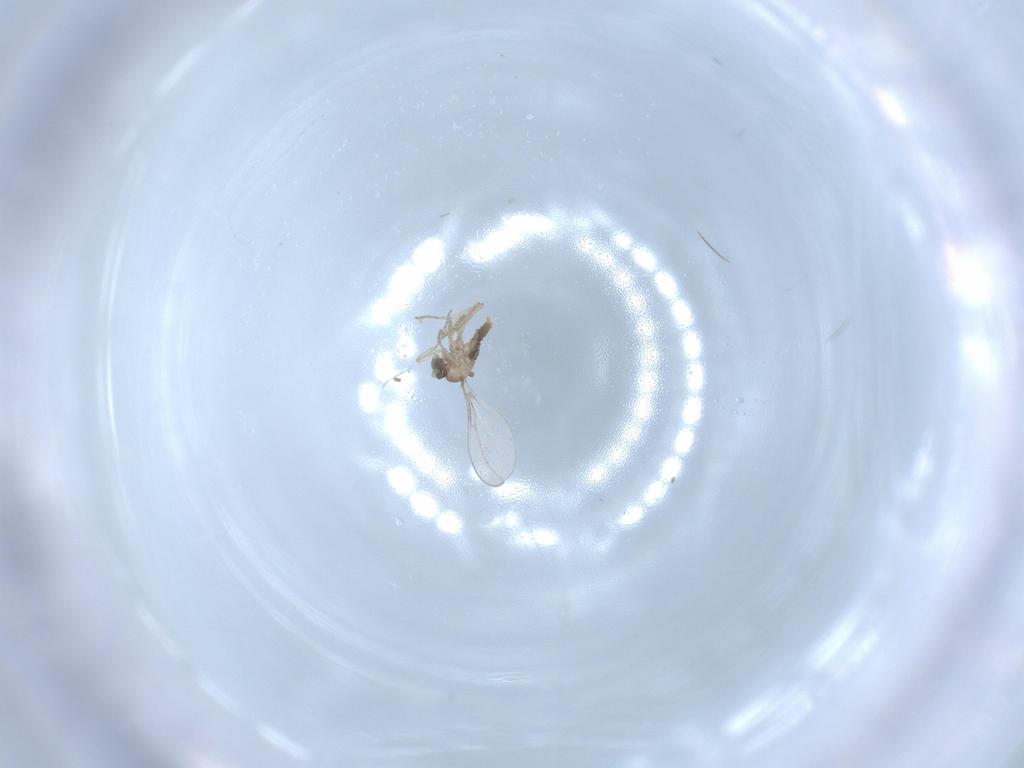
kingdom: Animalia
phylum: Arthropoda
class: Insecta
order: Diptera
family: Cecidomyiidae
